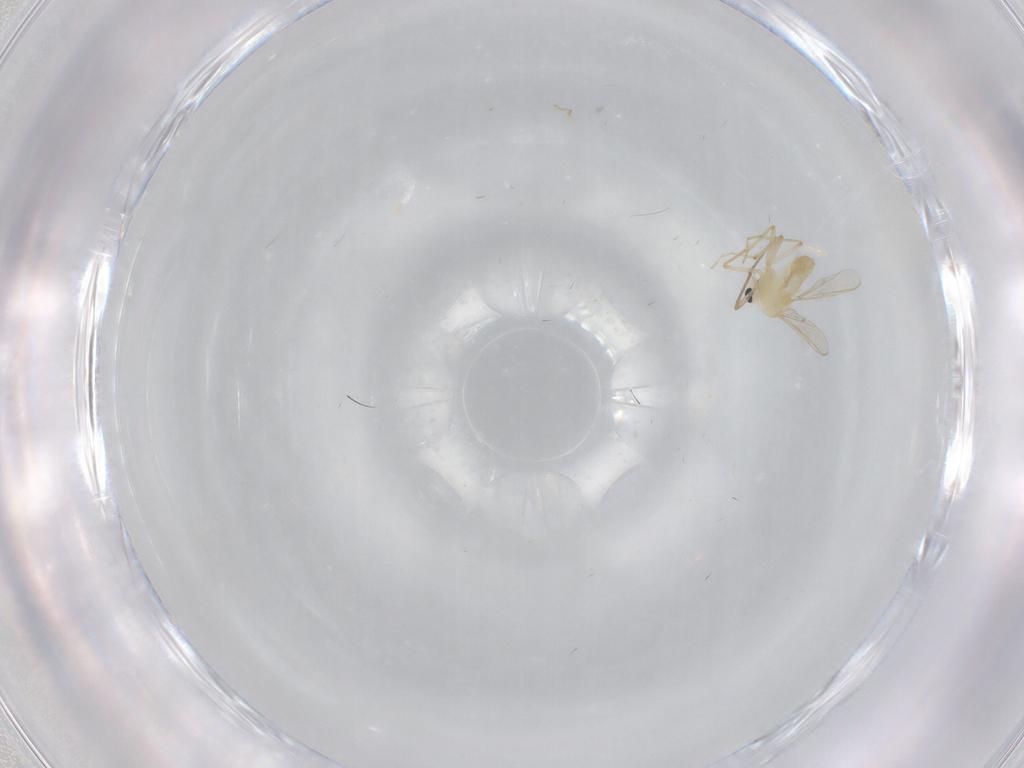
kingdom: Animalia
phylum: Arthropoda
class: Insecta
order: Diptera
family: Chironomidae
